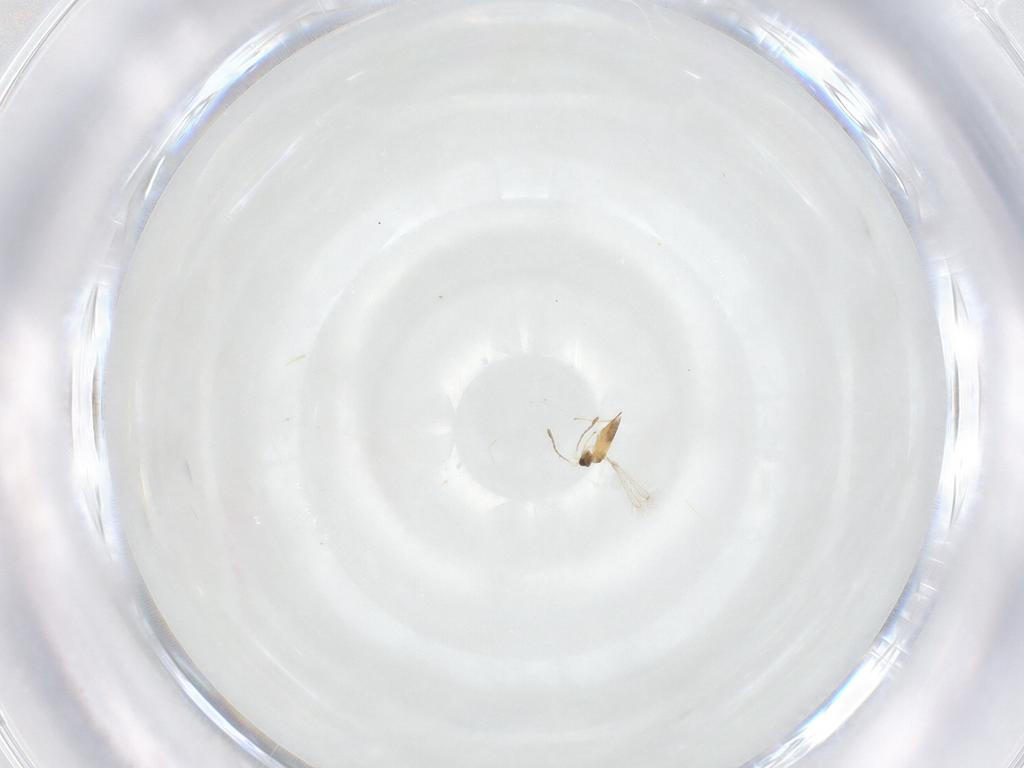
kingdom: Animalia
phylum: Arthropoda
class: Insecta
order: Hymenoptera
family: Mymaridae
